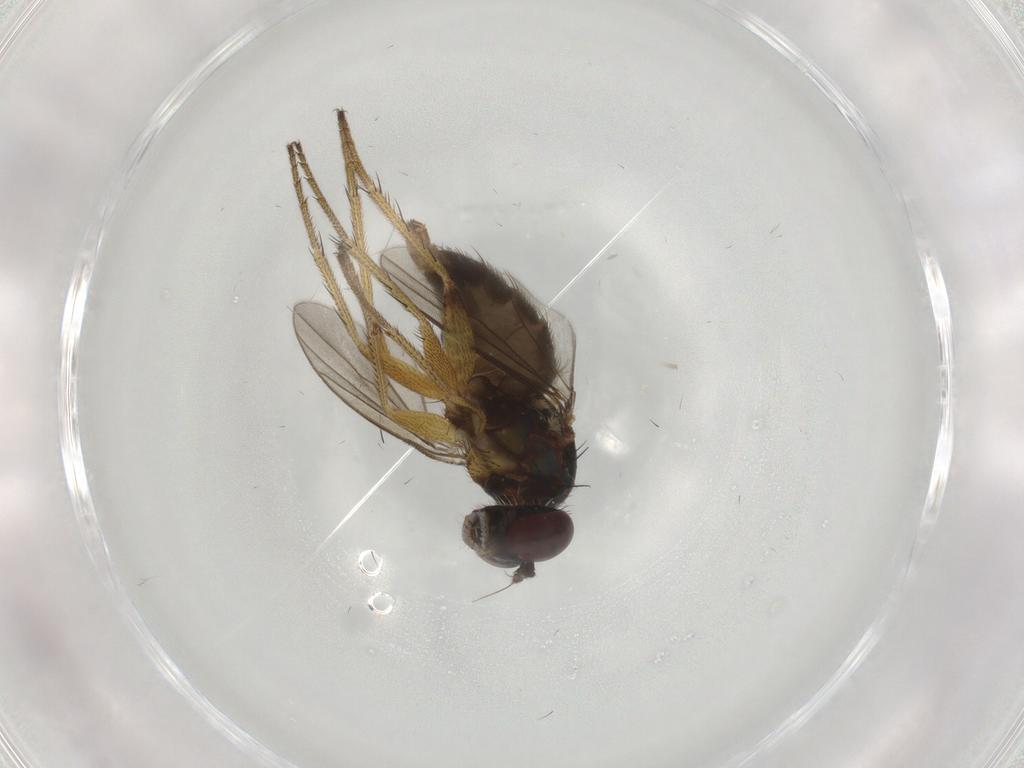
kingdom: Animalia
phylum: Arthropoda
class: Insecta
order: Diptera
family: Dolichopodidae
